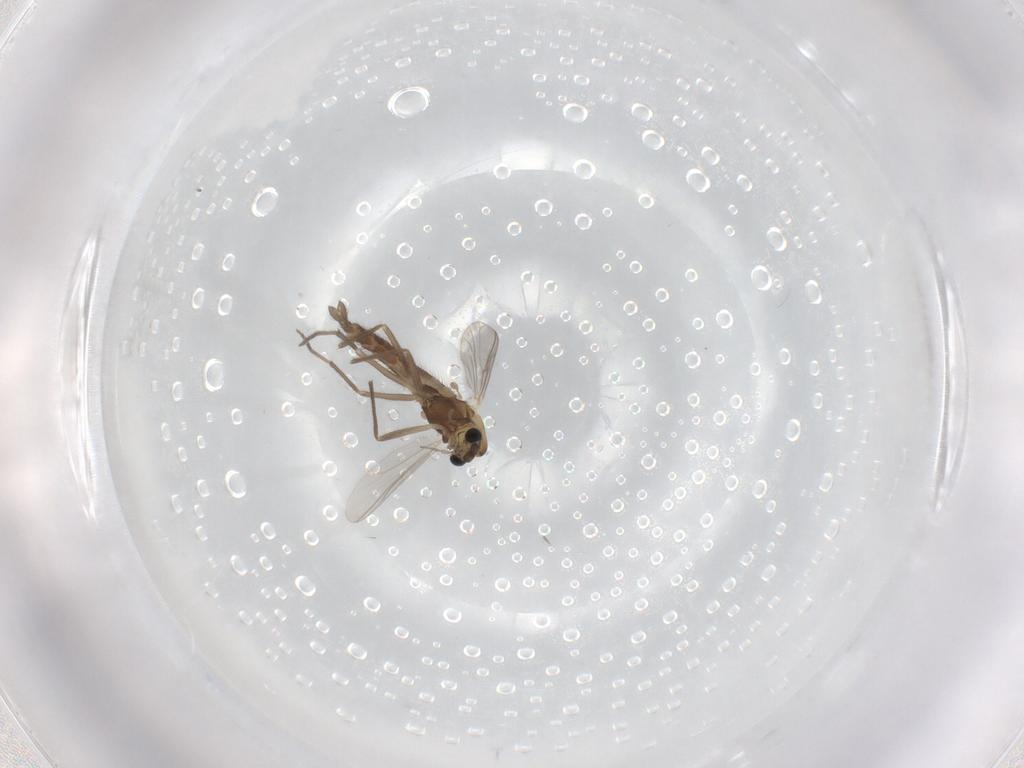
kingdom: Animalia
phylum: Arthropoda
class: Insecta
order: Diptera
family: Chironomidae
